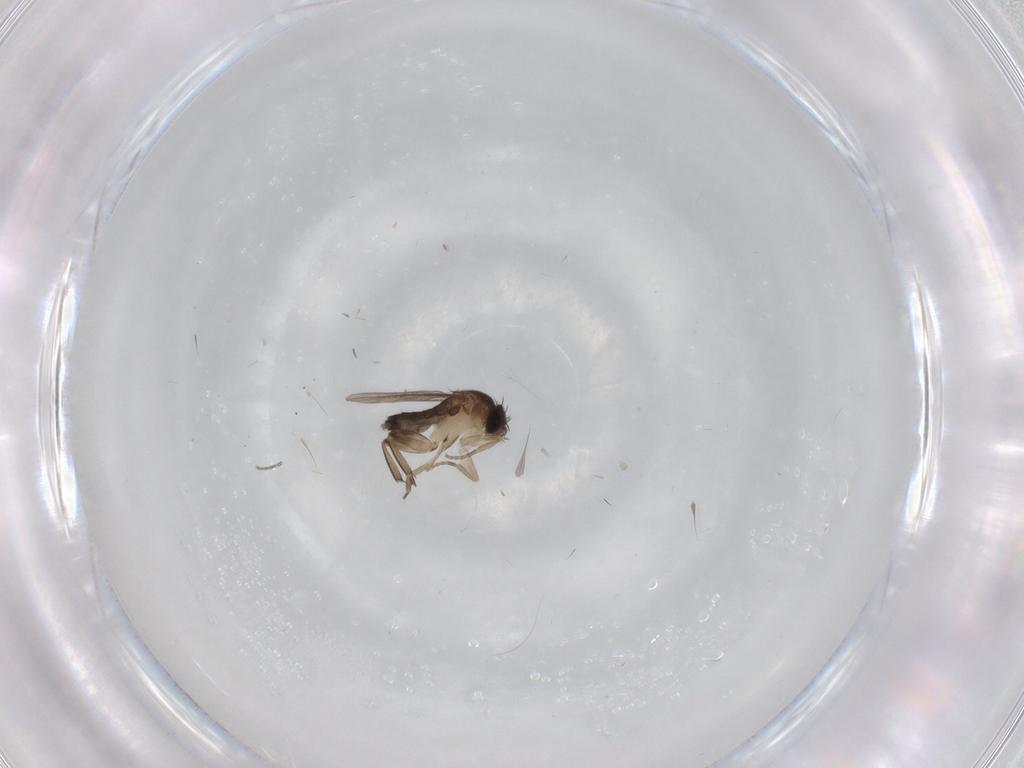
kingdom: Animalia
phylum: Arthropoda
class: Insecta
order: Diptera
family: Phoridae
